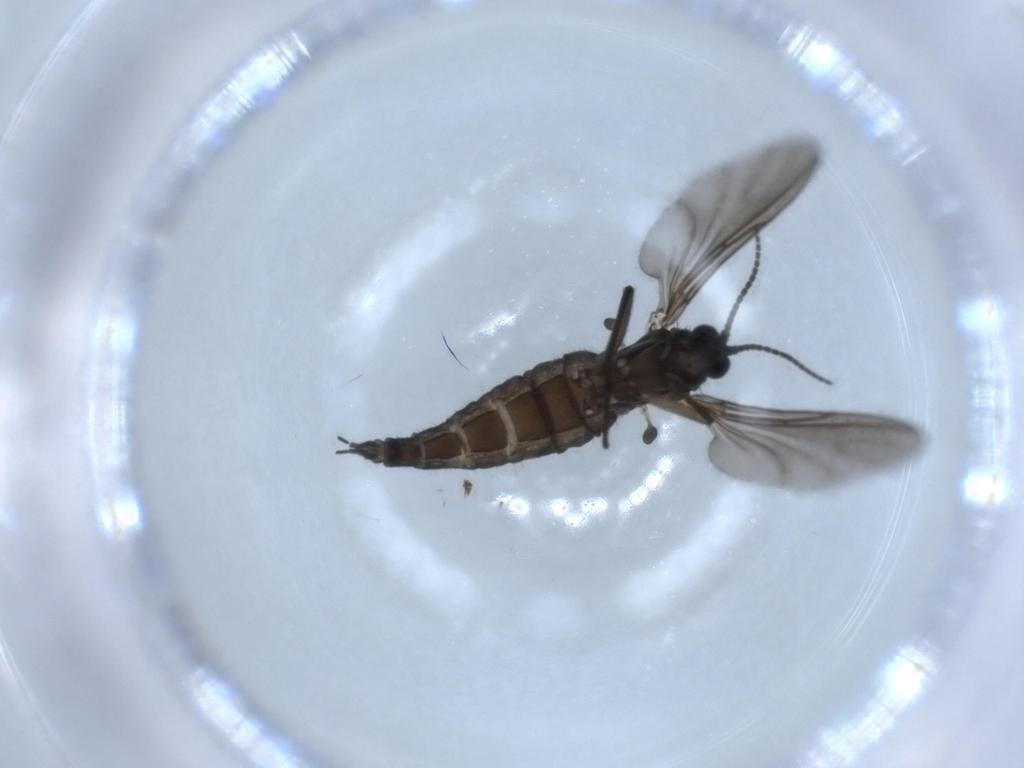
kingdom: Animalia
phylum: Arthropoda
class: Insecta
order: Diptera
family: Sciaridae
